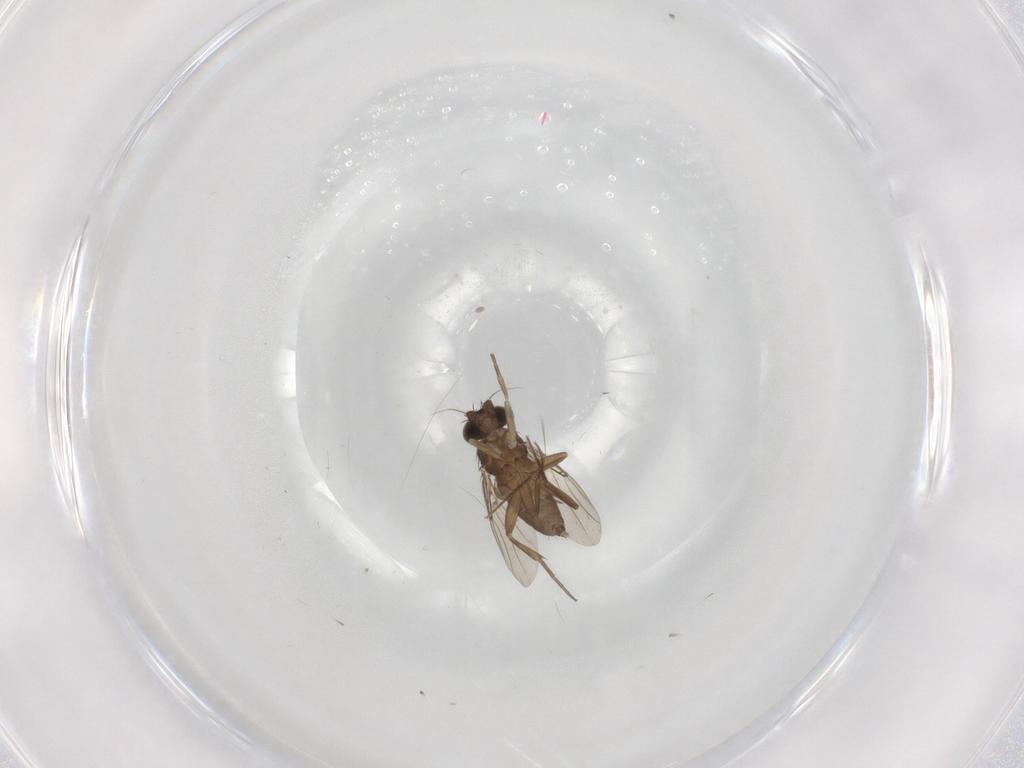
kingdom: Animalia
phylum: Arthropoda
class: Insecta
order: Diptera
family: Phoridae
